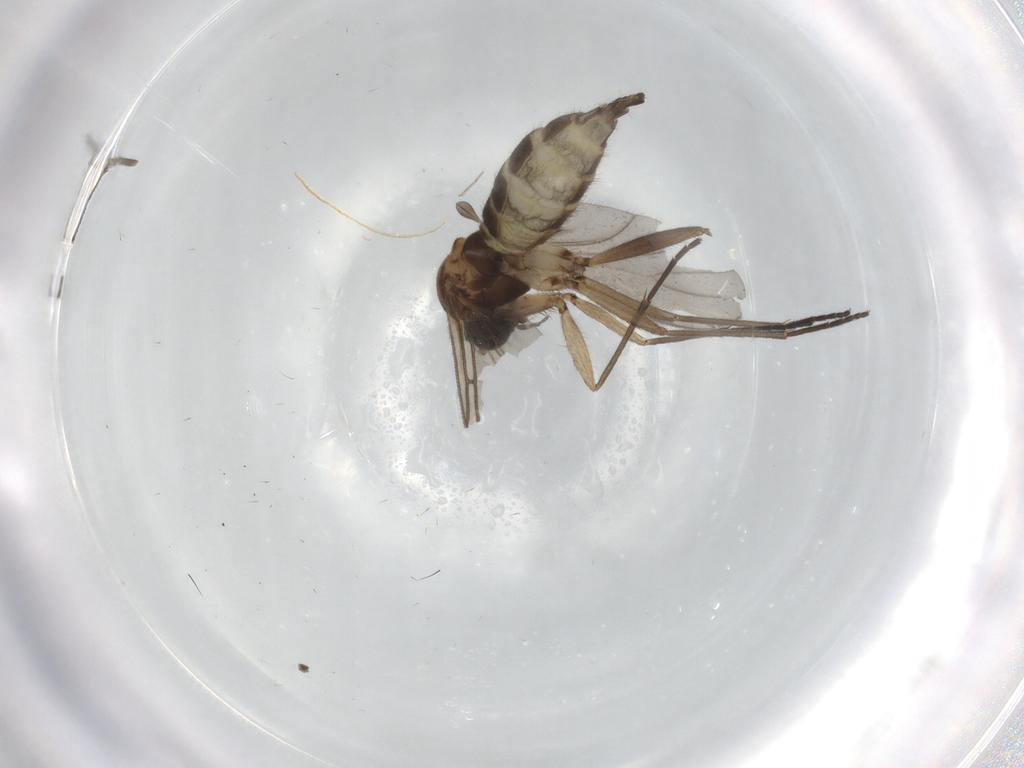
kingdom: Animalia
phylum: Arthropoda
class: Insecta
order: Diptera
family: Sciaridae
